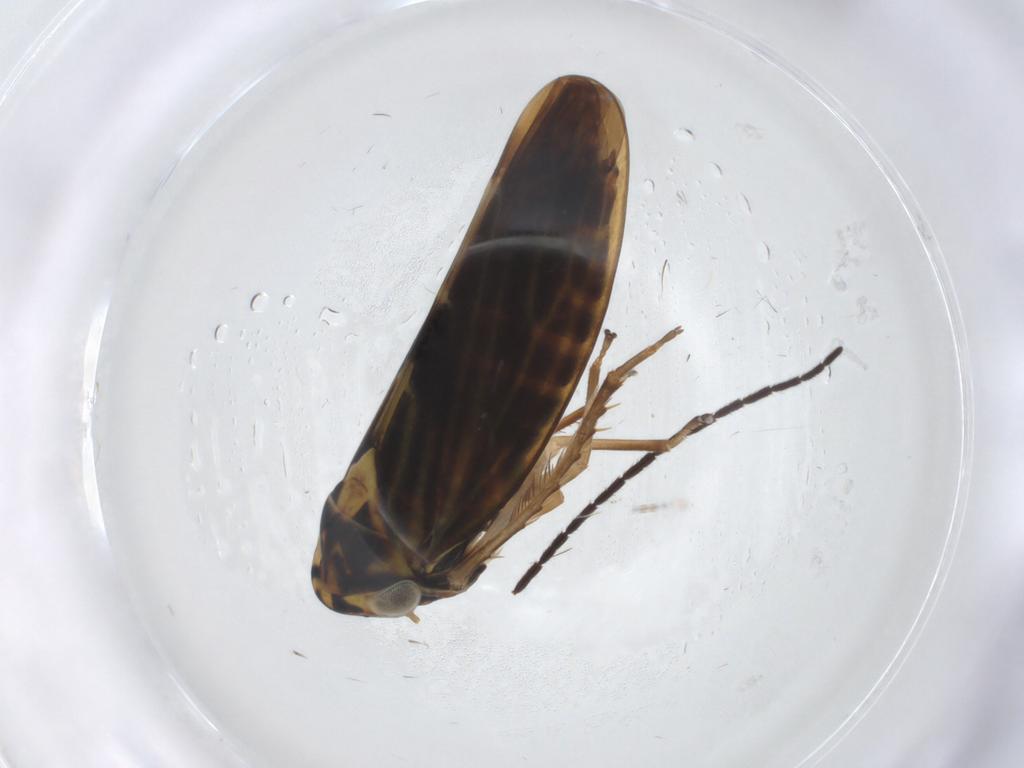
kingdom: Animalia
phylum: Arthropoda
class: Insecta
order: Hemiptera
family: Cicadellidae
